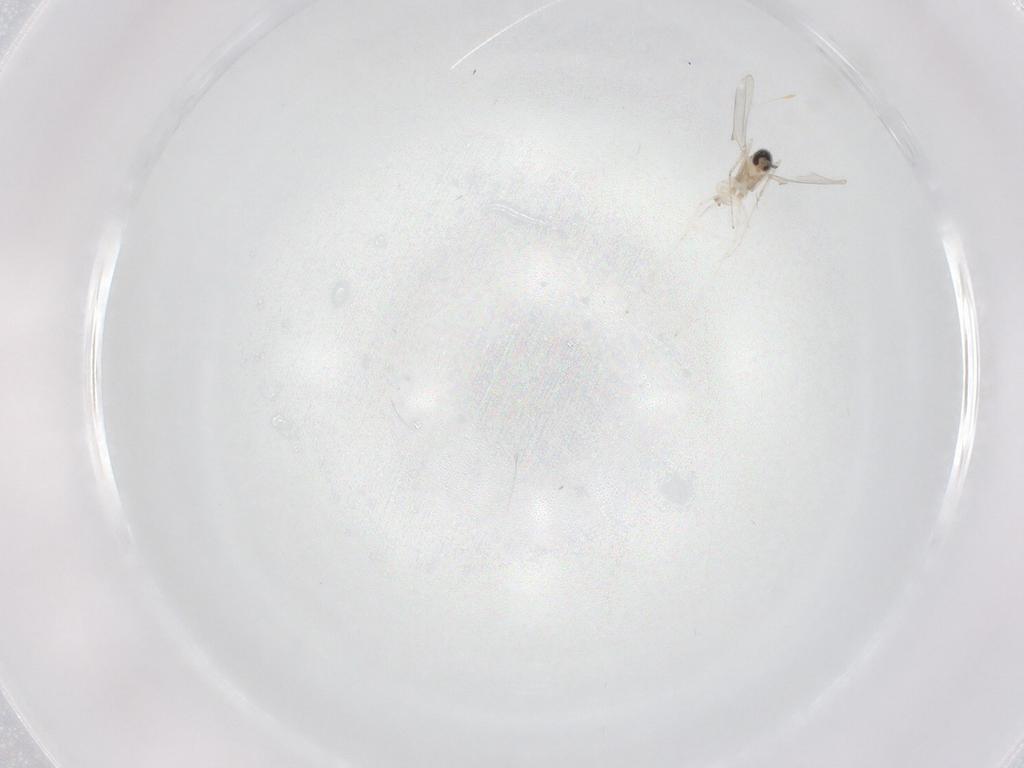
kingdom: Animalia
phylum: Arthropoda
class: Insecta
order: Diptera
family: Cecidomyiidae
